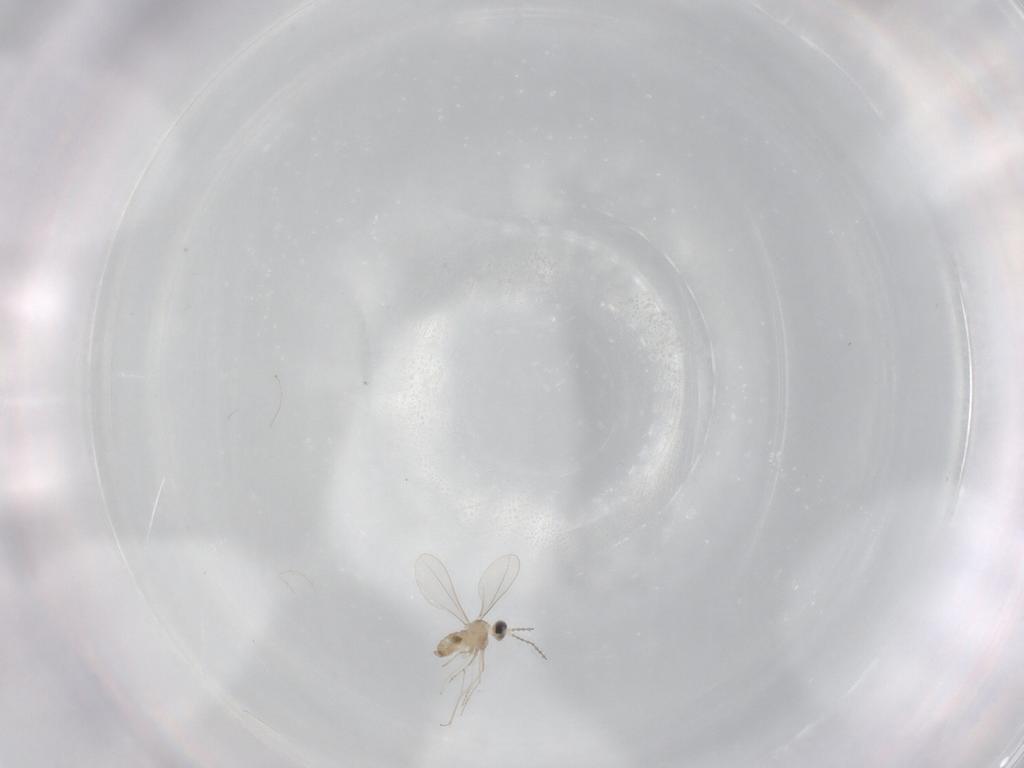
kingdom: Animalia
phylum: Arthropoda
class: Insecta
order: Diptera
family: Cecidomyiidae
